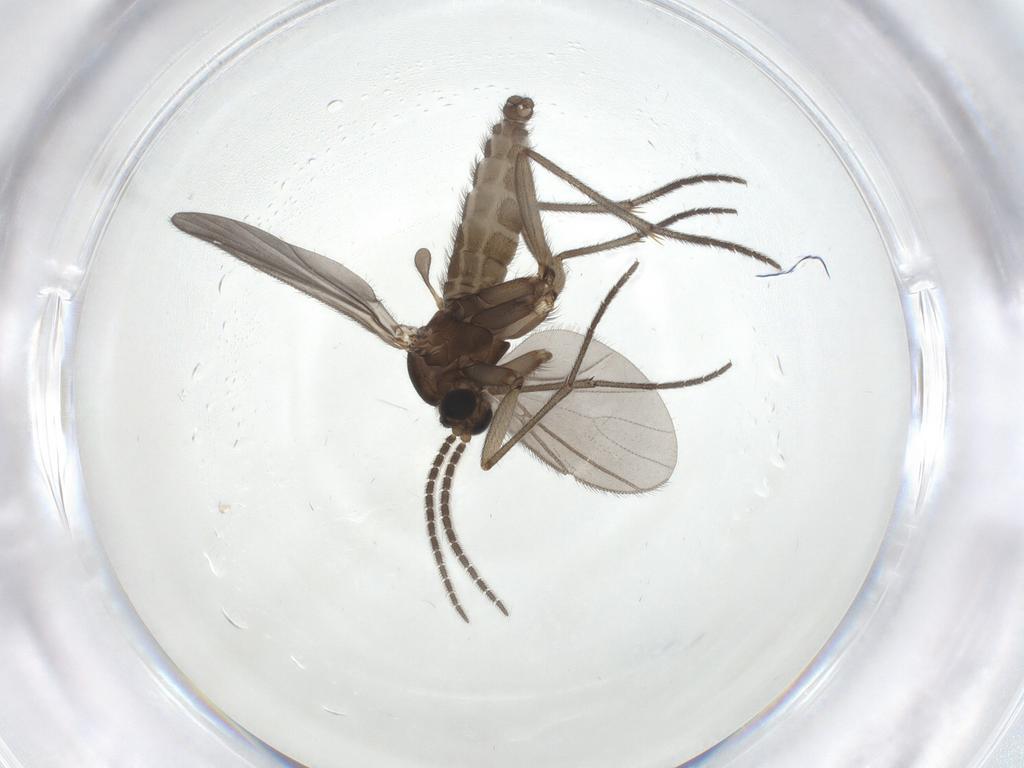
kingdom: Animalia
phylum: Arthropoda
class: Insecta
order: Diptera
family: Sciaridae
